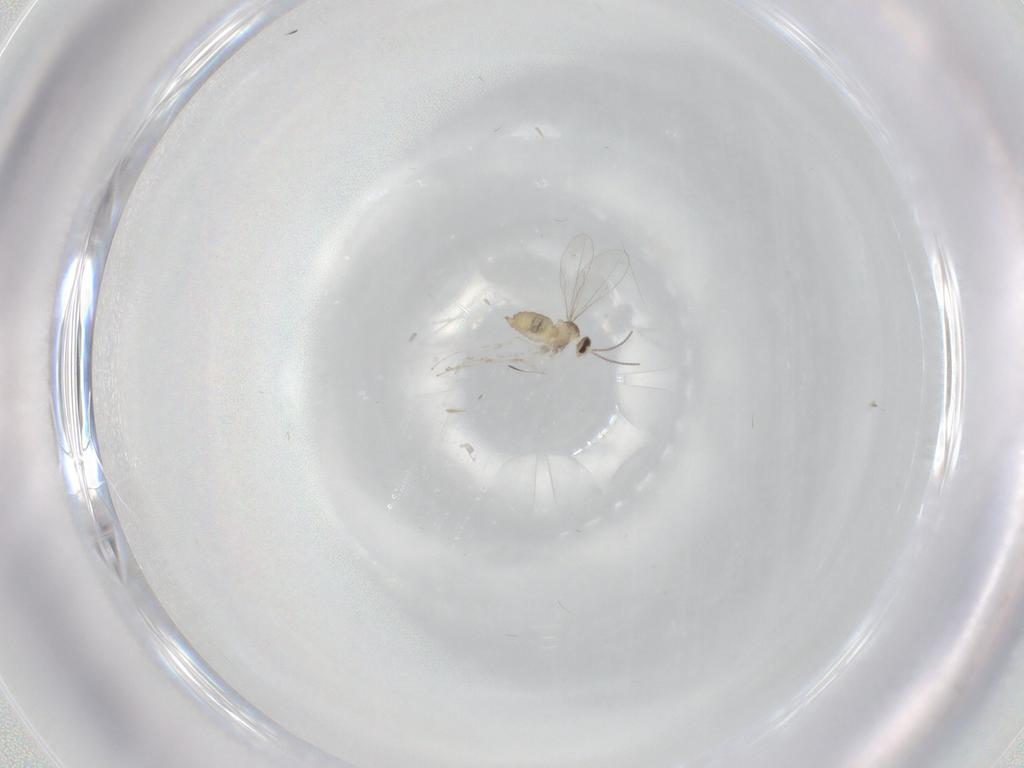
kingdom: Animalia
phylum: Arthropoda
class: Insecta
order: Diptera
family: Cecidomyiidae
